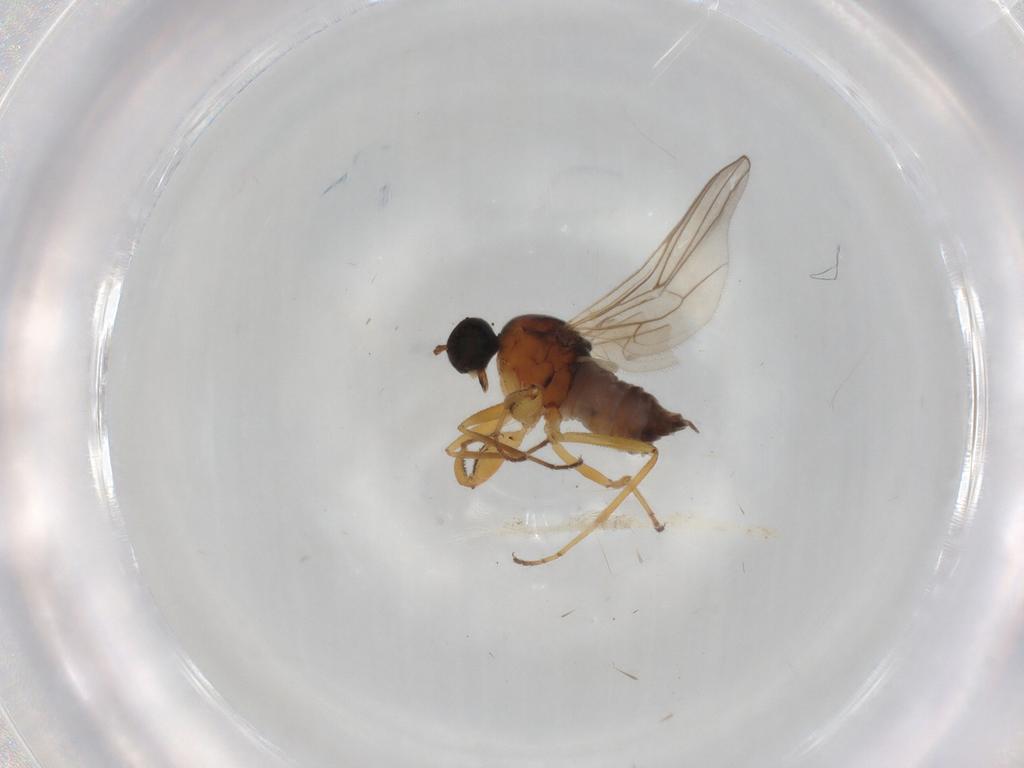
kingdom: Animalia
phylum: Arthropoda
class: Insecta
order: Diptera
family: Hybotidae
